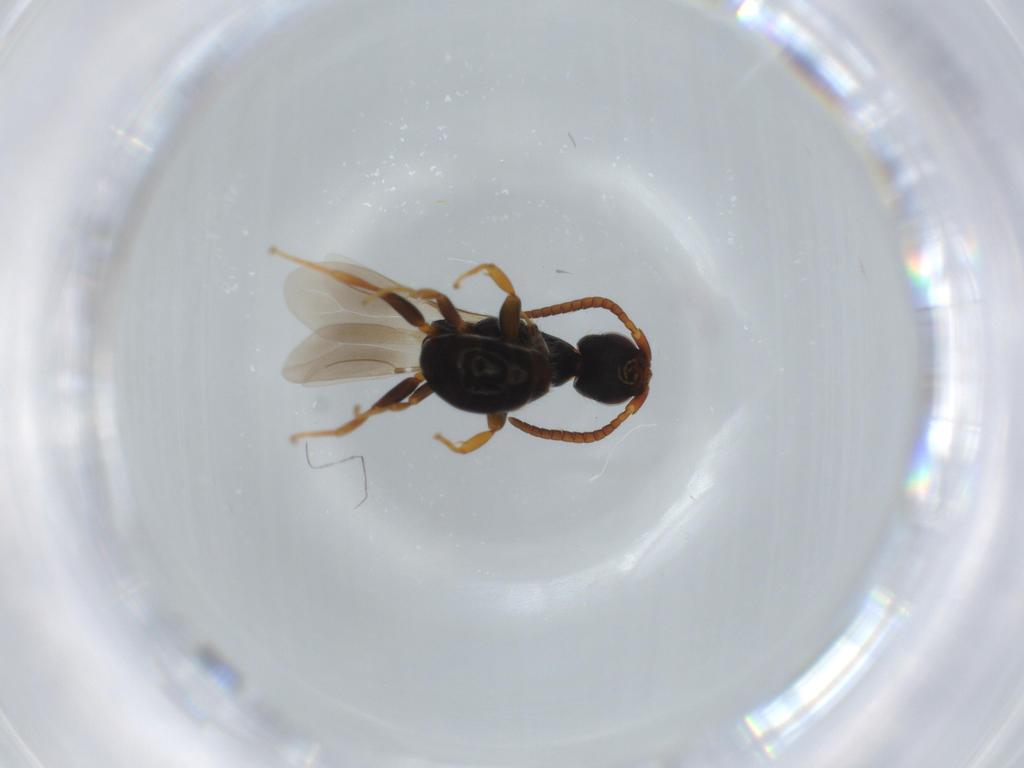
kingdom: Animalia
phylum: Arthropoda
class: Insecta
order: Hymenoptera
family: Bethylidae
